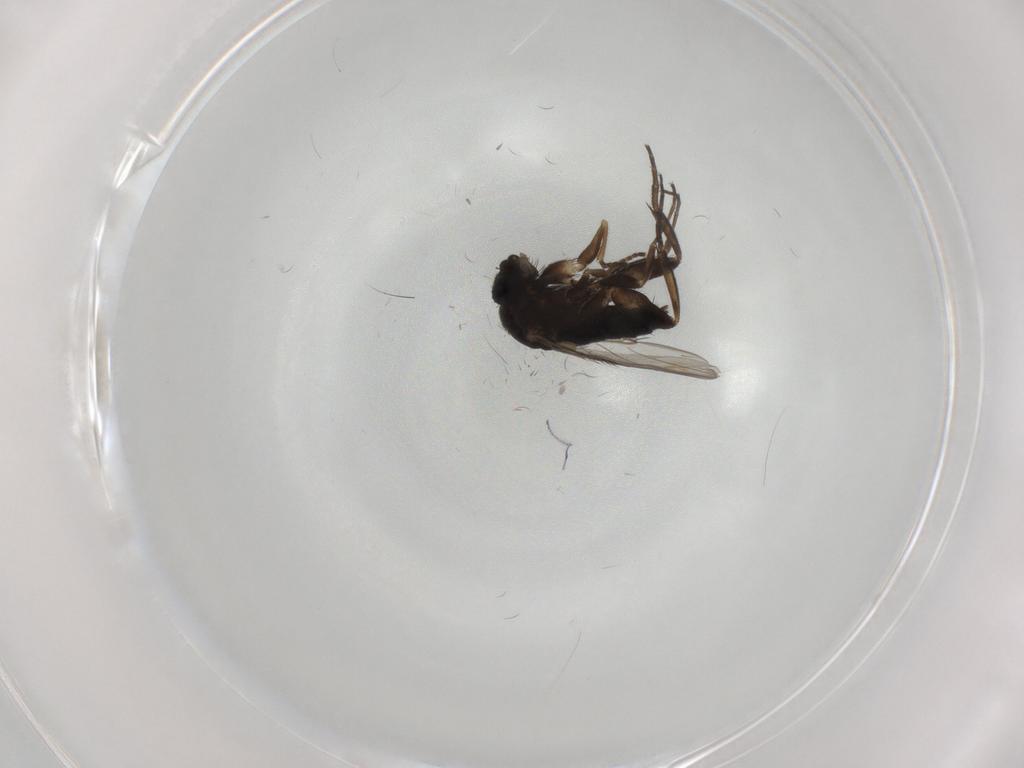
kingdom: Animalia
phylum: Arthropoda
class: Insecta
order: Diptera
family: Phoridae
